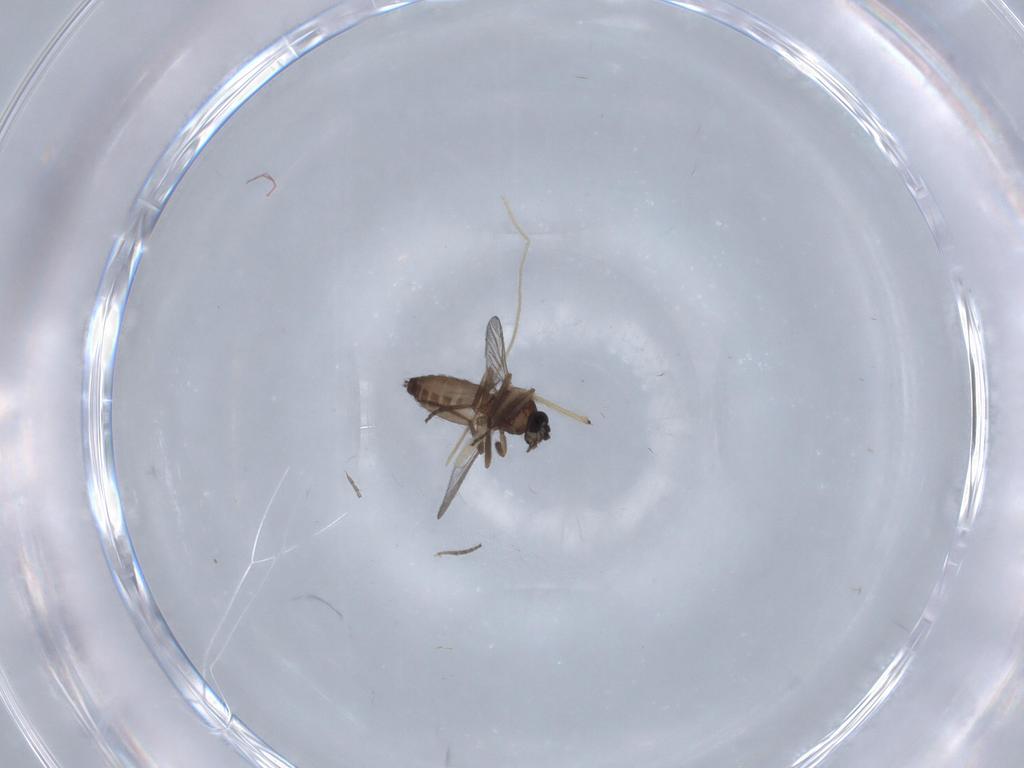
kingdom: Animalia
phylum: Arthropoda
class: Insecta
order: Diptera
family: Chironomidae
